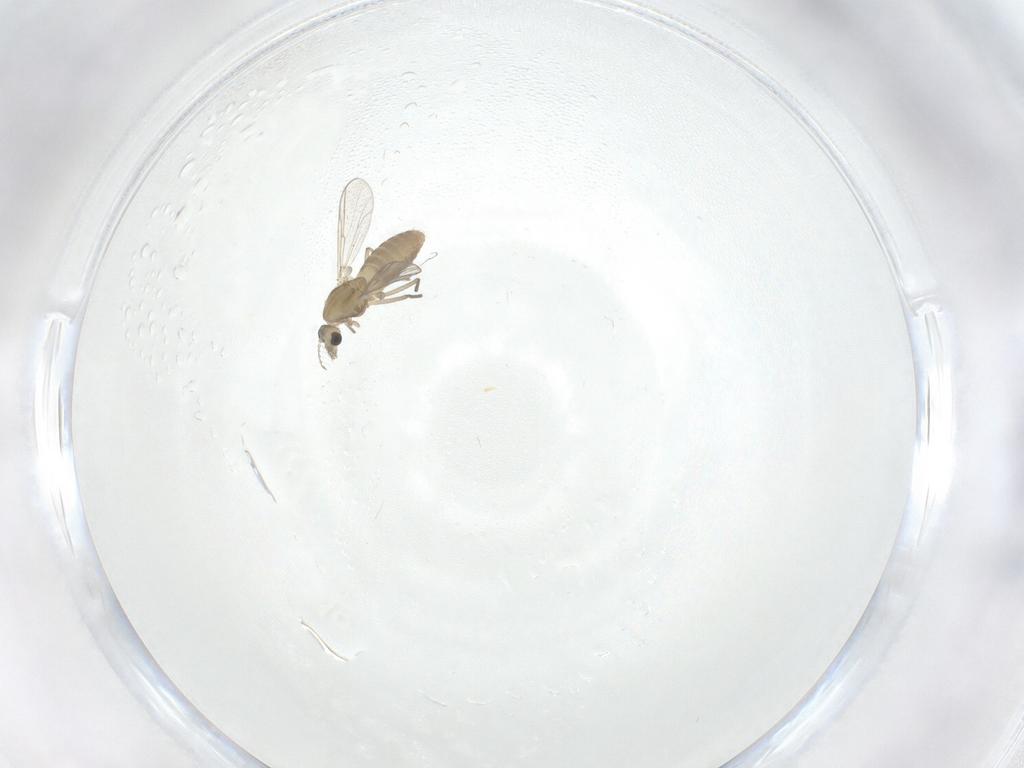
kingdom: Animalia
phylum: Arthropoda
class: Insecta
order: Diptera
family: Chironomidae
